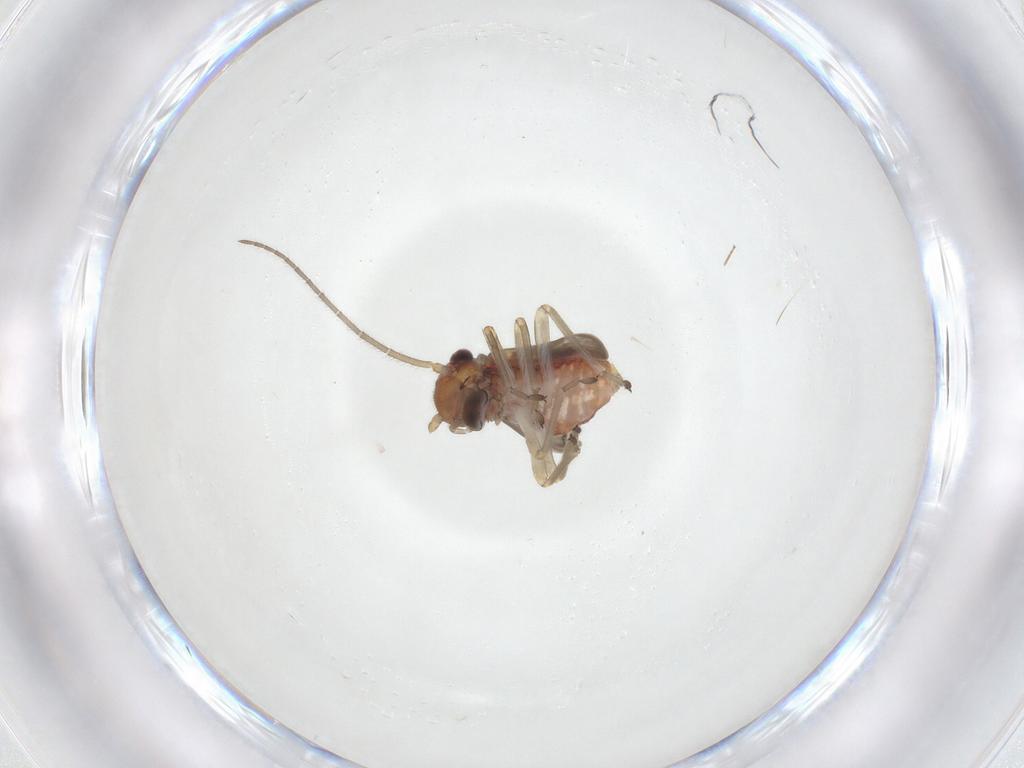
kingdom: Animalia
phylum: Arthropoda
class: Insecta
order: Psocodea
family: Caeciliusidae
